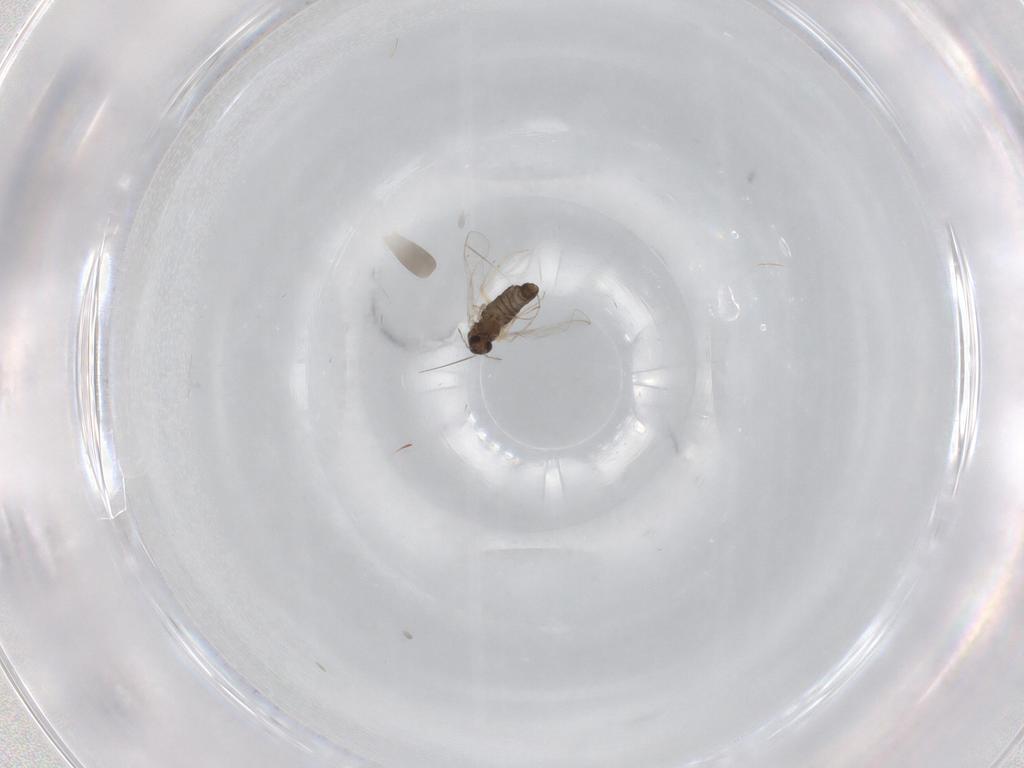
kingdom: Animalia
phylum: Arthropoda
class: Insecta
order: Diptera
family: Chironomidae
